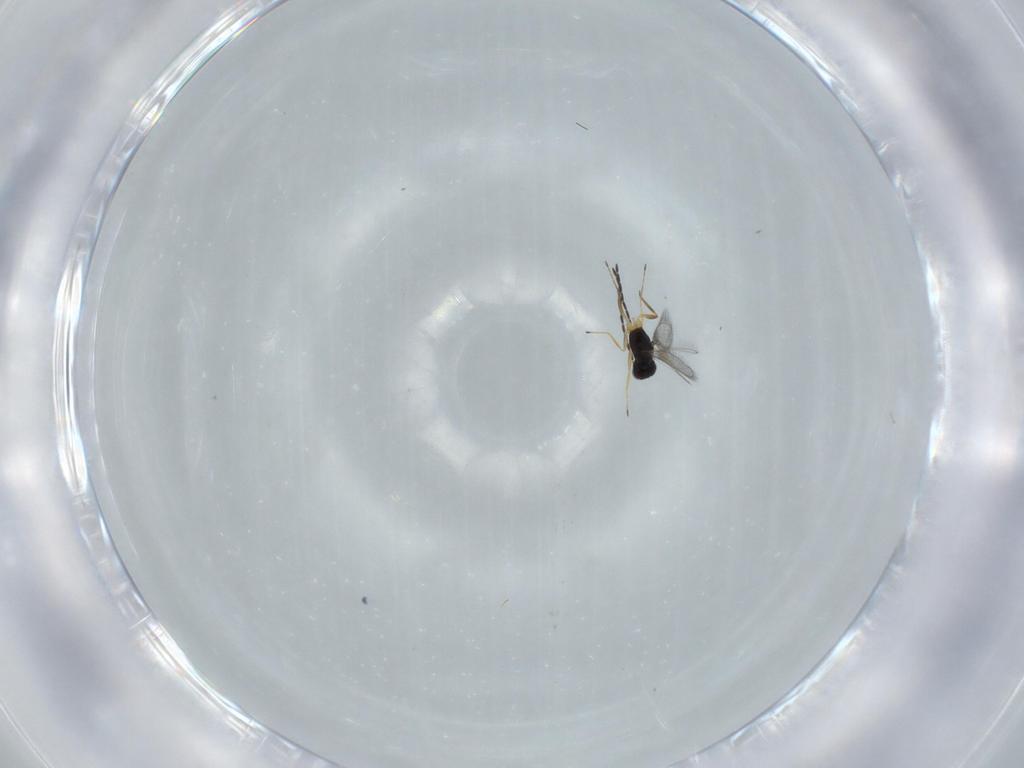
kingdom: Animalia
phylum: Arthropoda
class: Insecta
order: Hymenoptera
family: Mymaridae
